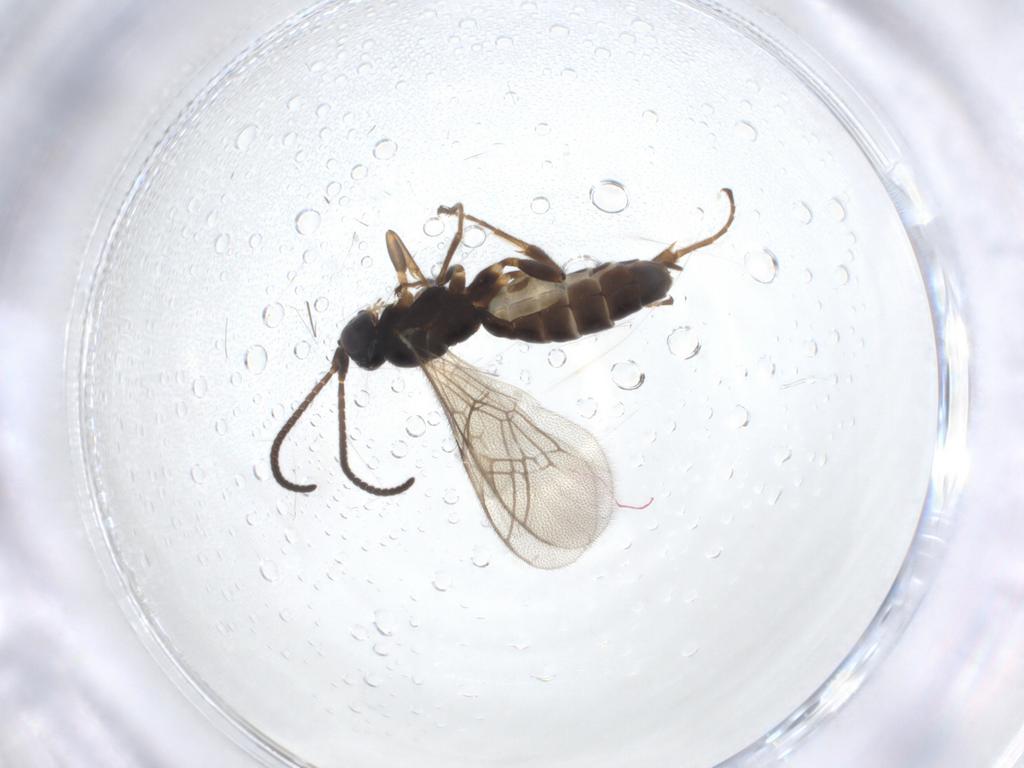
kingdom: Animalia
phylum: Arthropoda
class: Insecta
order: Hymenoptera
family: Ichneumonidae
